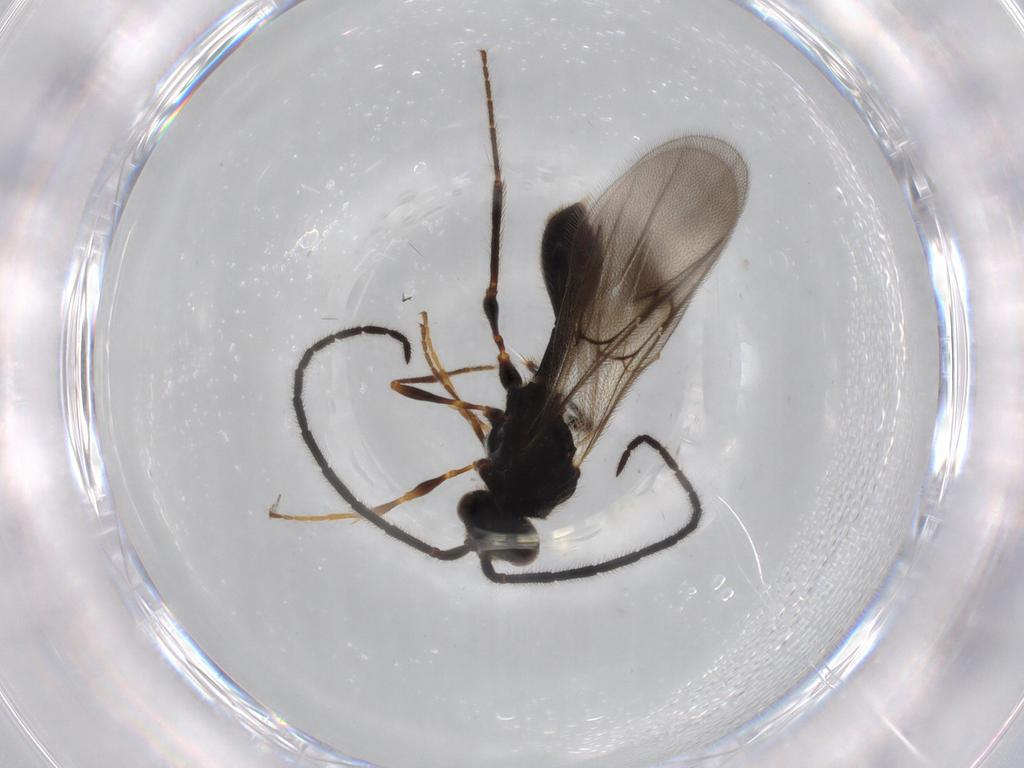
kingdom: Animalia
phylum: Arthropoda
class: Insecta
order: Hymenoptera
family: Diapriidae
